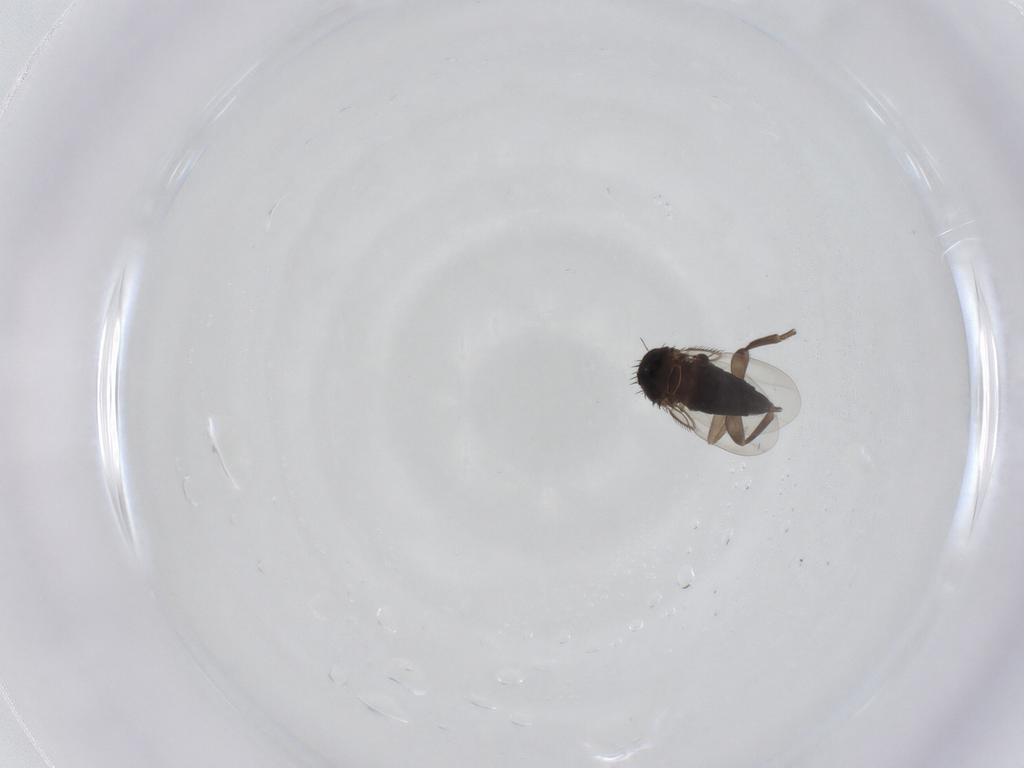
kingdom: Animalia
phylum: Arthropoda
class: Insecta
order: Diptera
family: Phoridae
